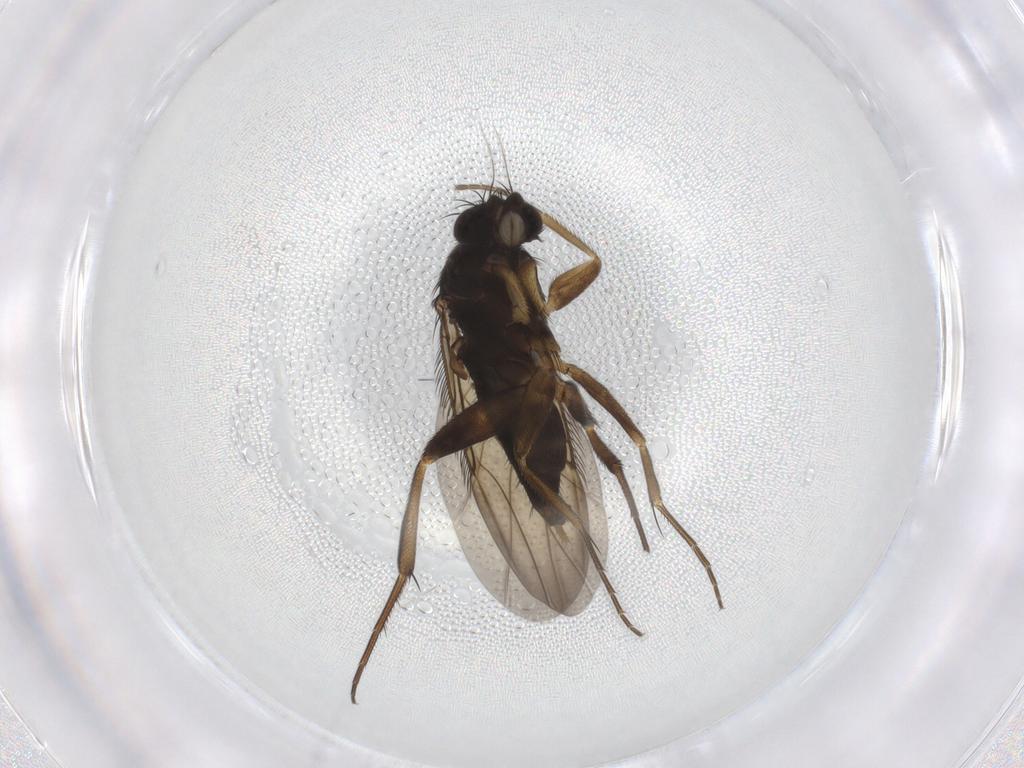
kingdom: Animalia
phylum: Arthropoda
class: Insecta
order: Diptera
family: Phoridae
